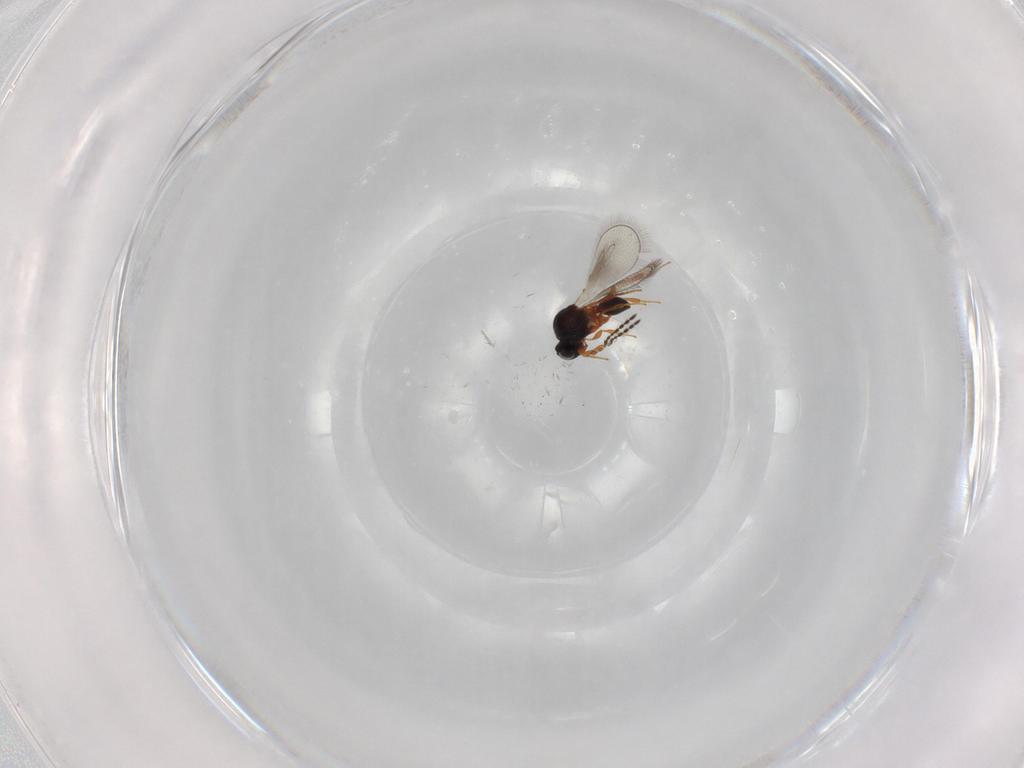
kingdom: Animalia
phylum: Arthropoda
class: Insecta
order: Hymenoptera
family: Platygastridae
